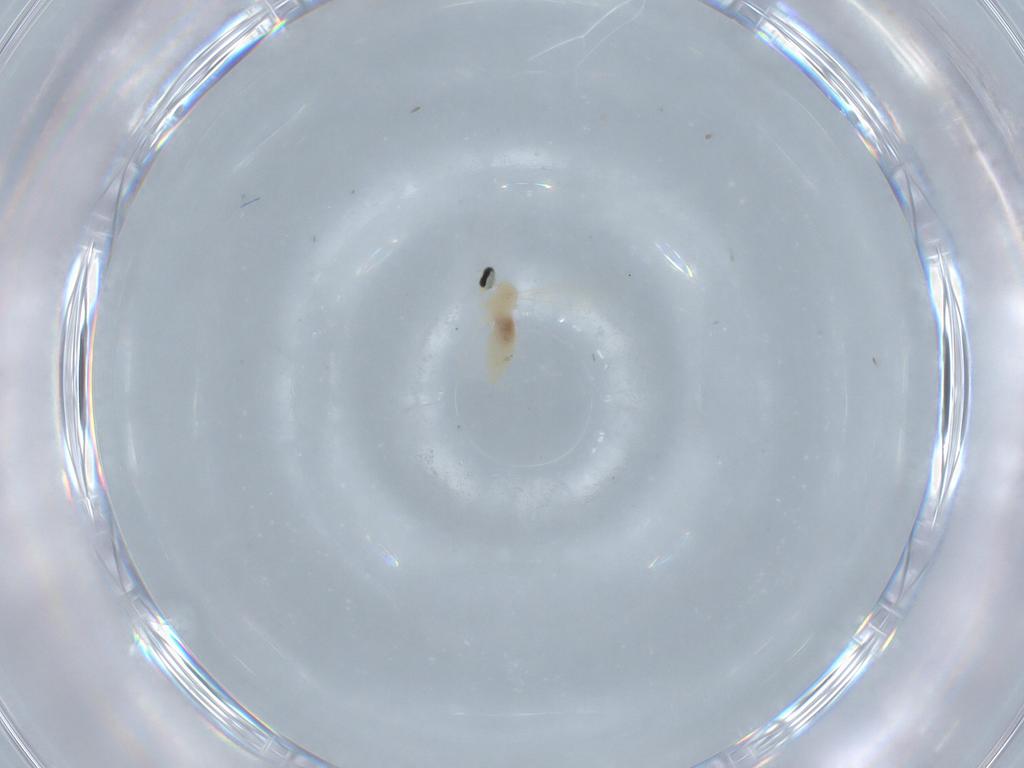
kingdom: Animalia
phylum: Arthropoda
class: Insecta
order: Diptera
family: Cecidomyiidae
